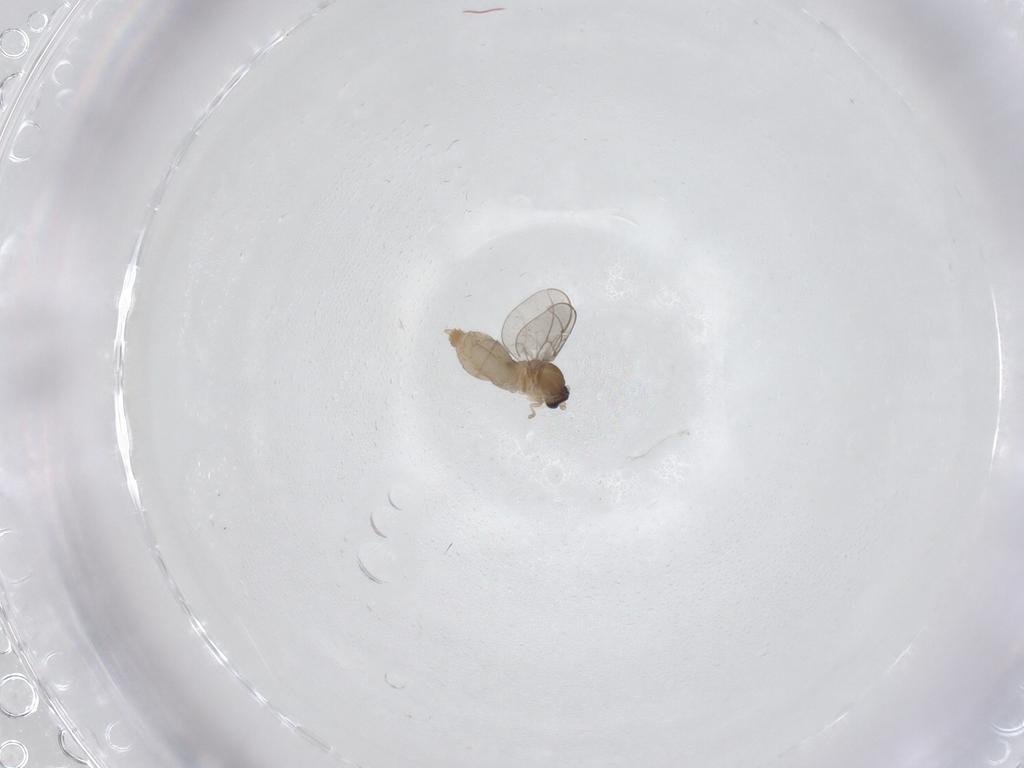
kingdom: Animalia
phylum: Arthropoda
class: Insecta
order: Diptera
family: Cecidomyiidae
